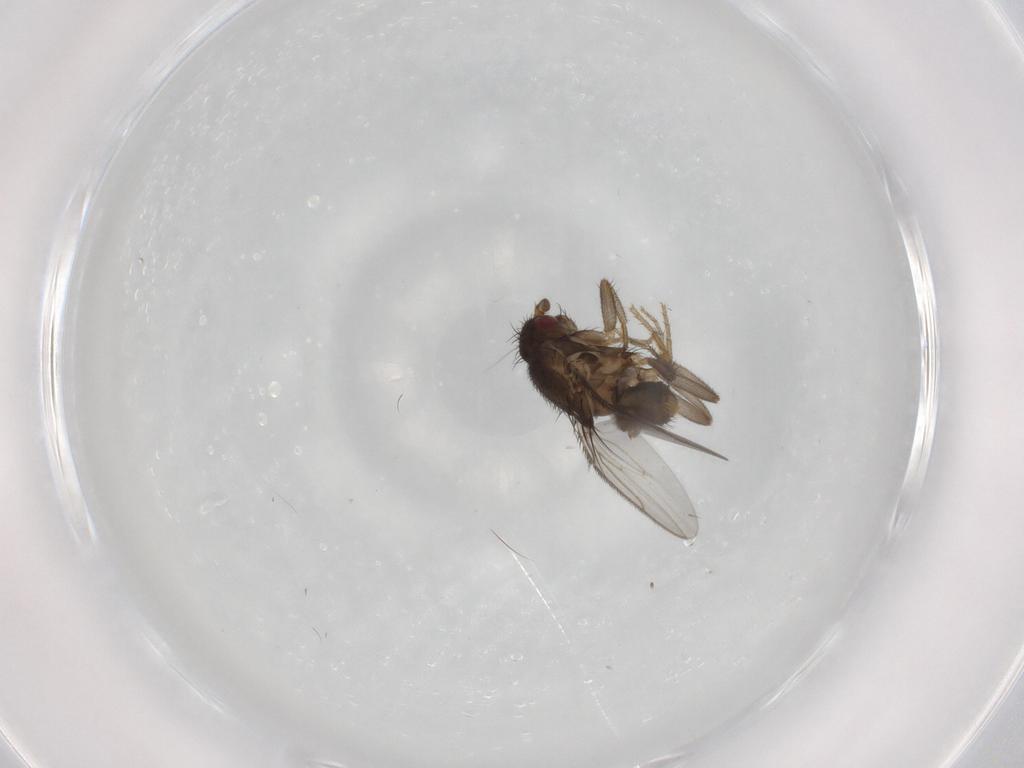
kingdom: Animalia
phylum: Arthropoda
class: Insecta
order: Diptera
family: Sphaeroceridae
